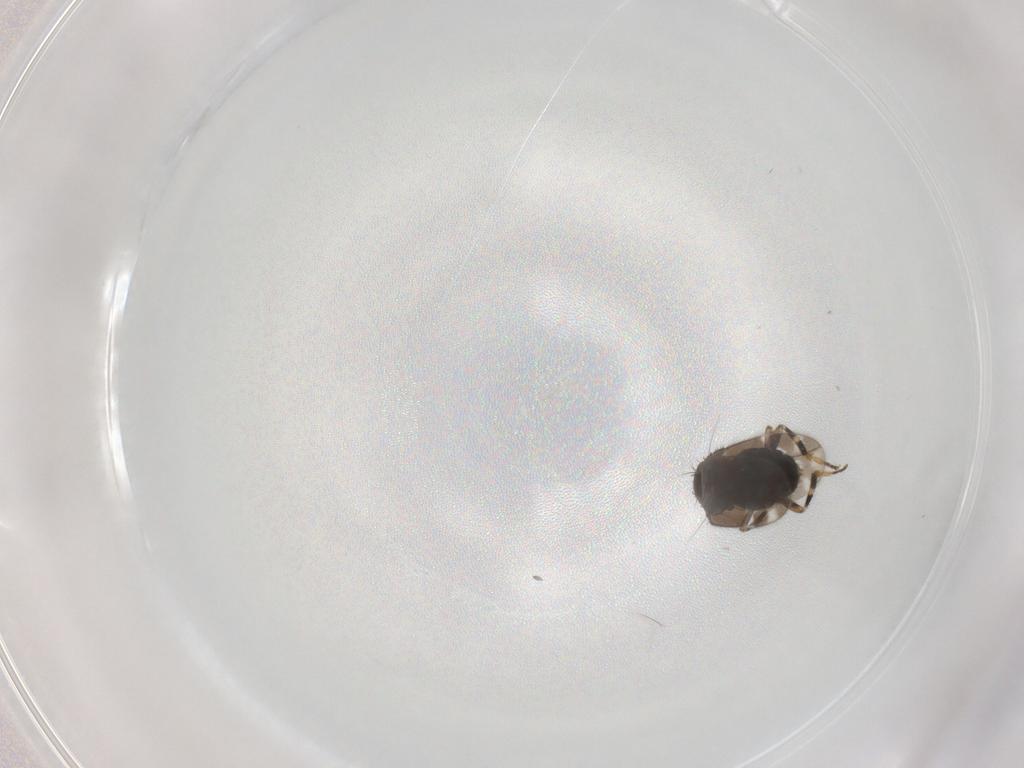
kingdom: Animalia
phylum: Arthropoda
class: Insecta
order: Diptera
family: Sphaeroceridae
